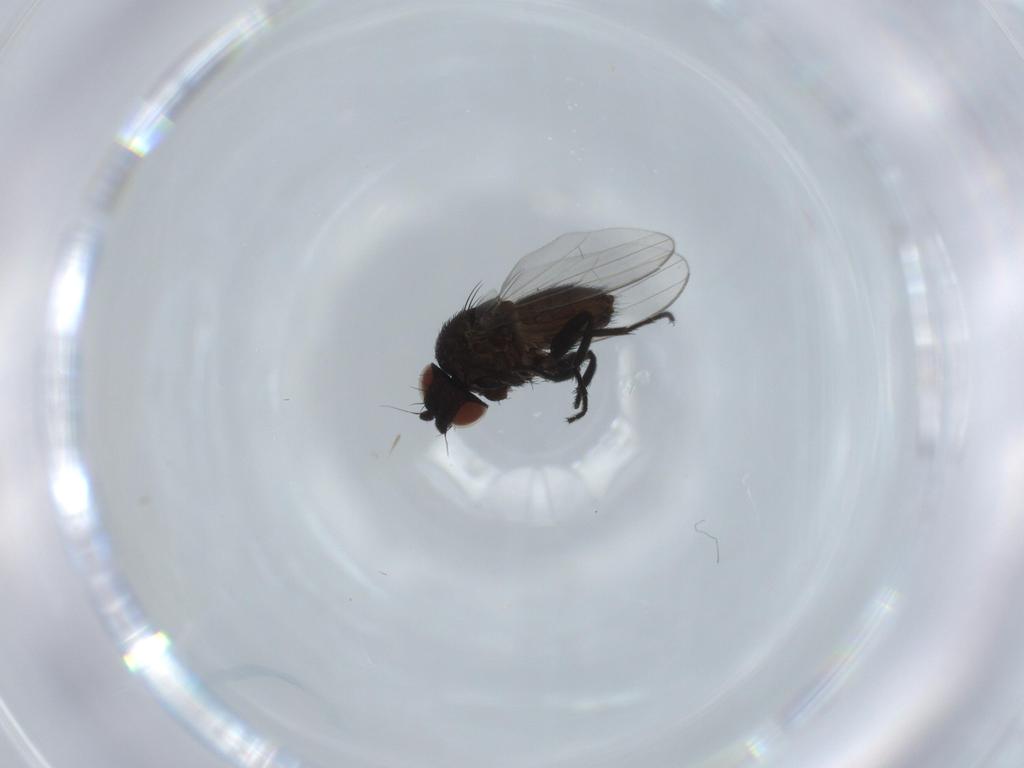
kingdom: Animalia
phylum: Arthropoda
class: Insecta
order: Diptera
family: Milichiidae
